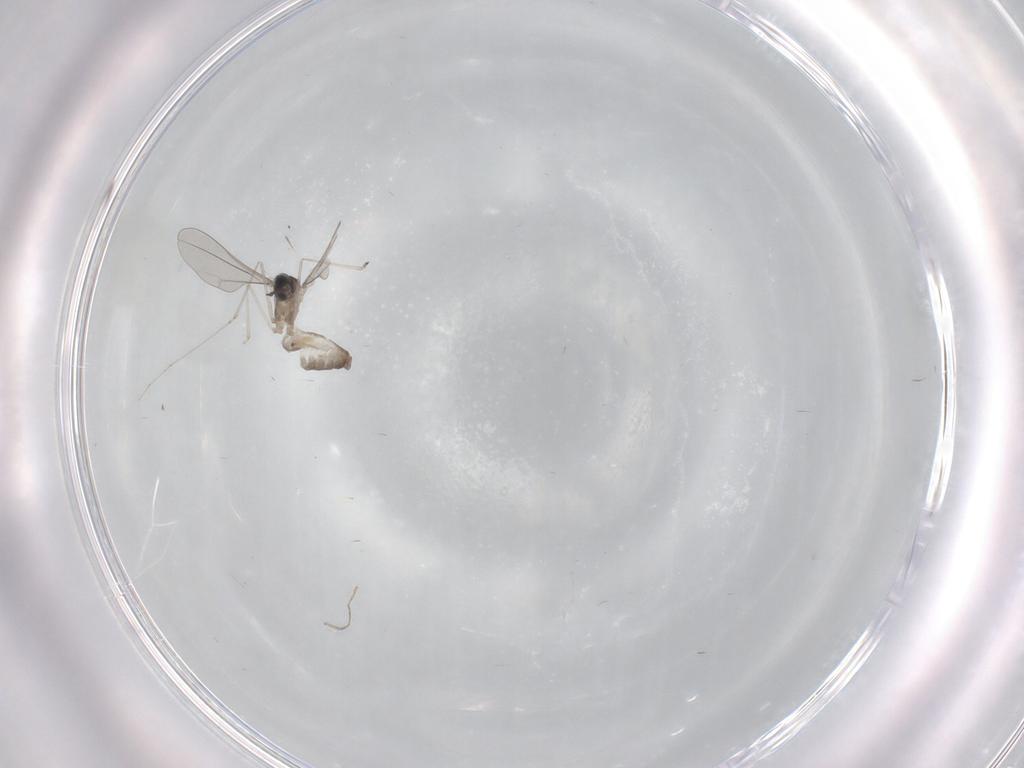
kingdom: Animalia
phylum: Arthropoda
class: Insecta
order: Diptera
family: Cecidomyiidae
